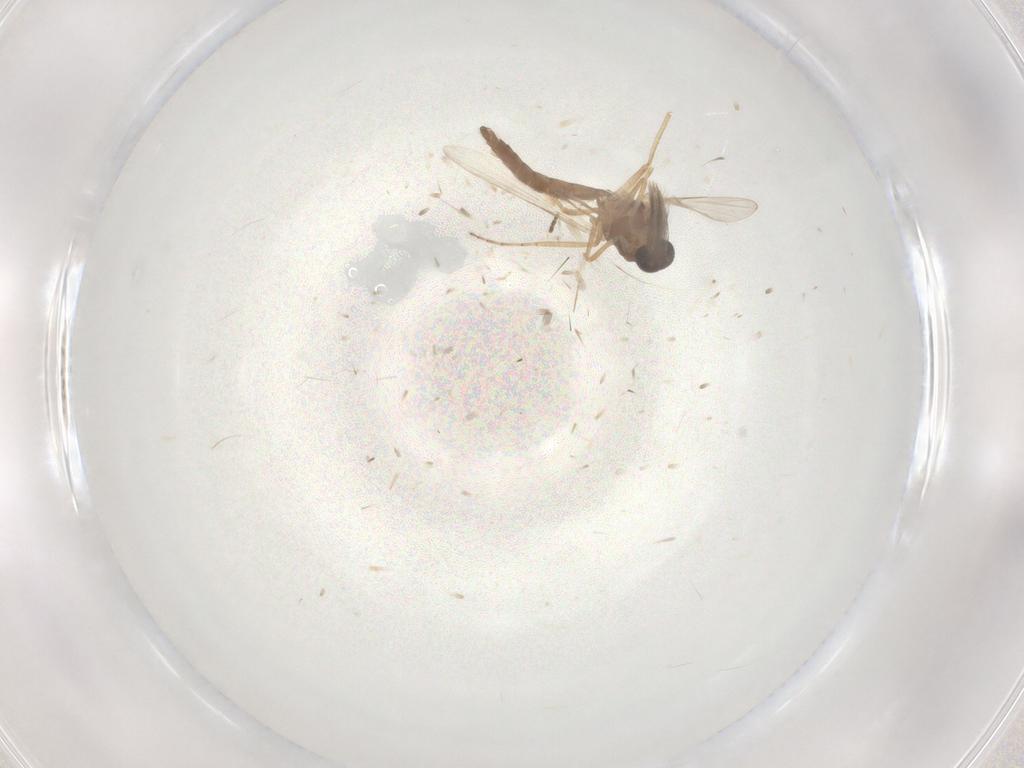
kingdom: Animalia
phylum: Arthropoda
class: Insecta
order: Diptera
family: Ceratopogonidae
